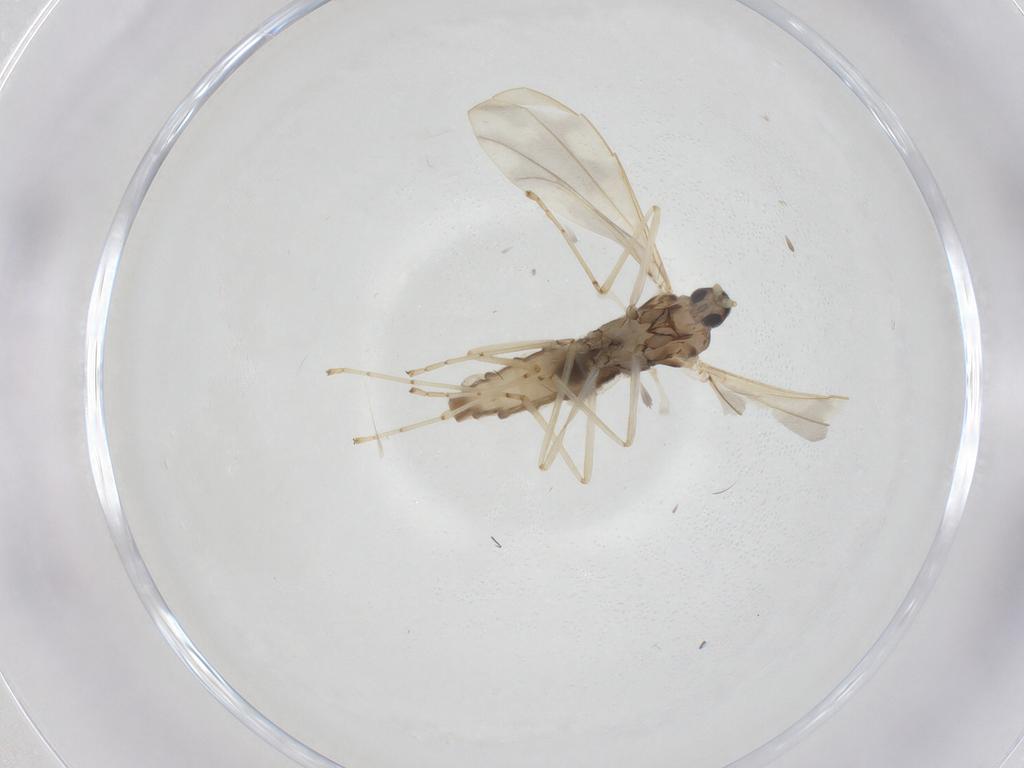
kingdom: Animalia
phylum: Arthropoda
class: Insecta
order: Diptera
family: Cecidomyiidae
